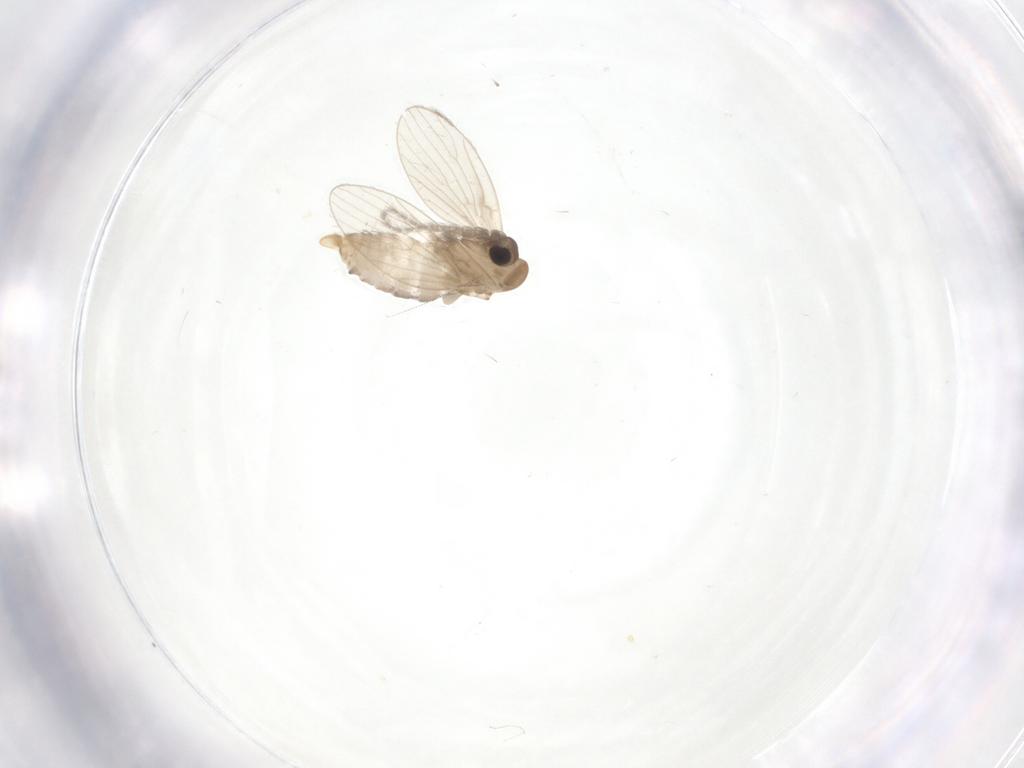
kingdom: Animalia
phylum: Arthropoda
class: Insecta
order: Diptera
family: Psychodidae
